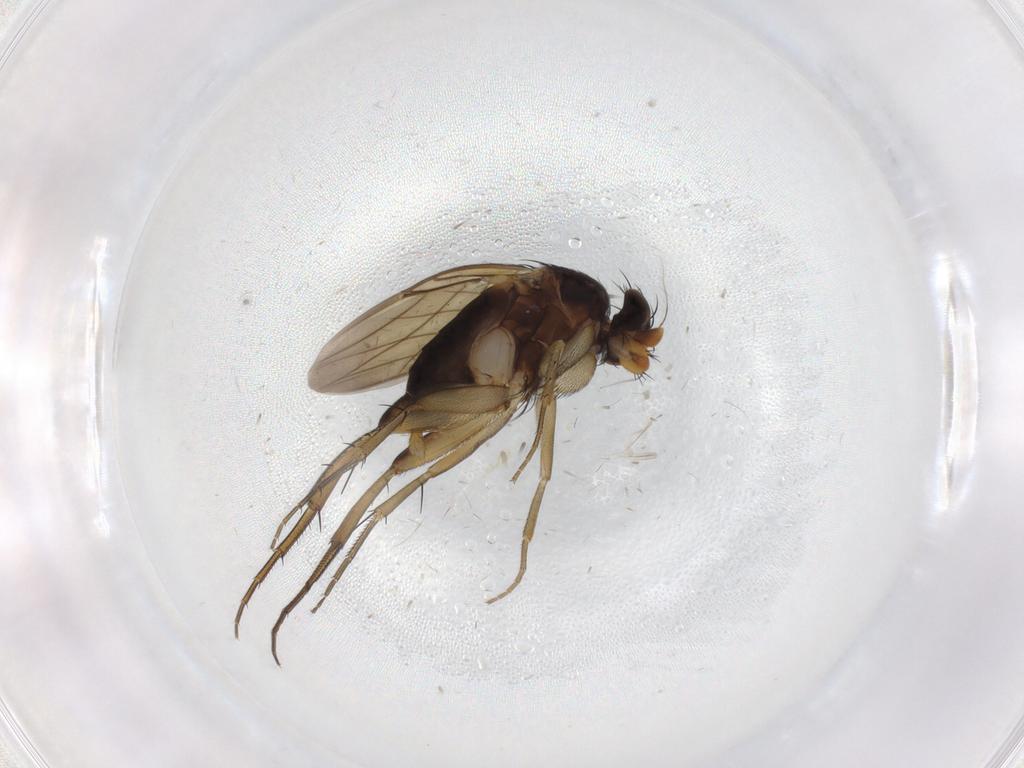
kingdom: Animalia
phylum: Arthropoda
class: Insecta
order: Diptera
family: Phoridae
